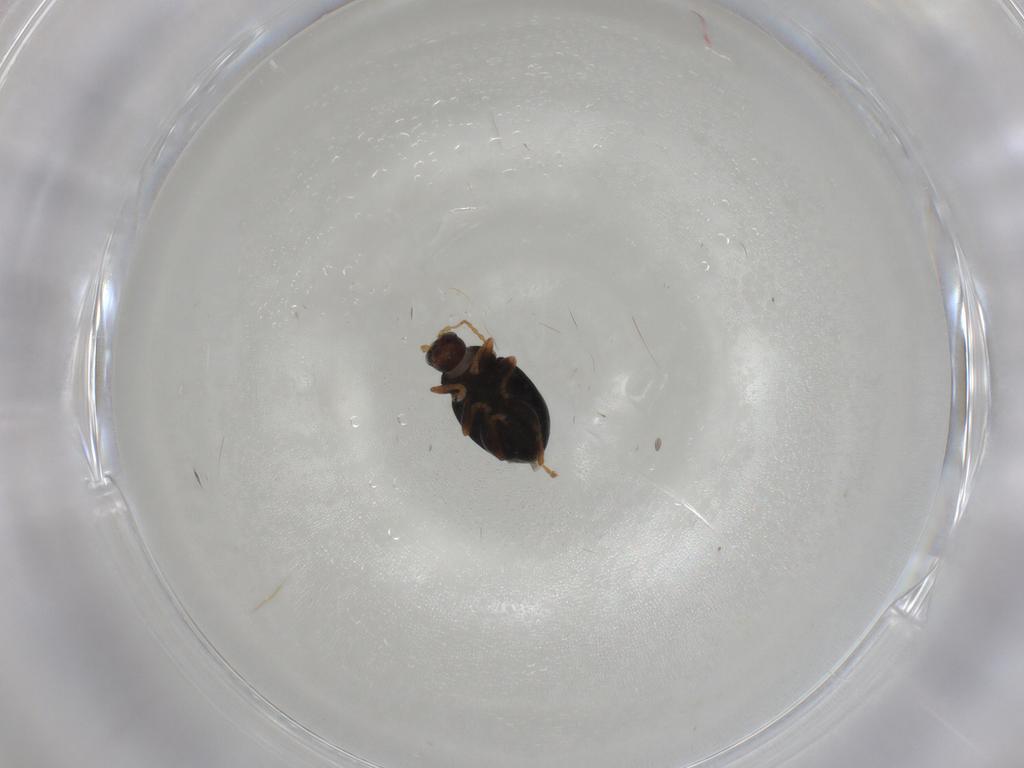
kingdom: Animalia
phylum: Arthropoda
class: Insecta
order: Coleoptera
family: Chrysomelidae
